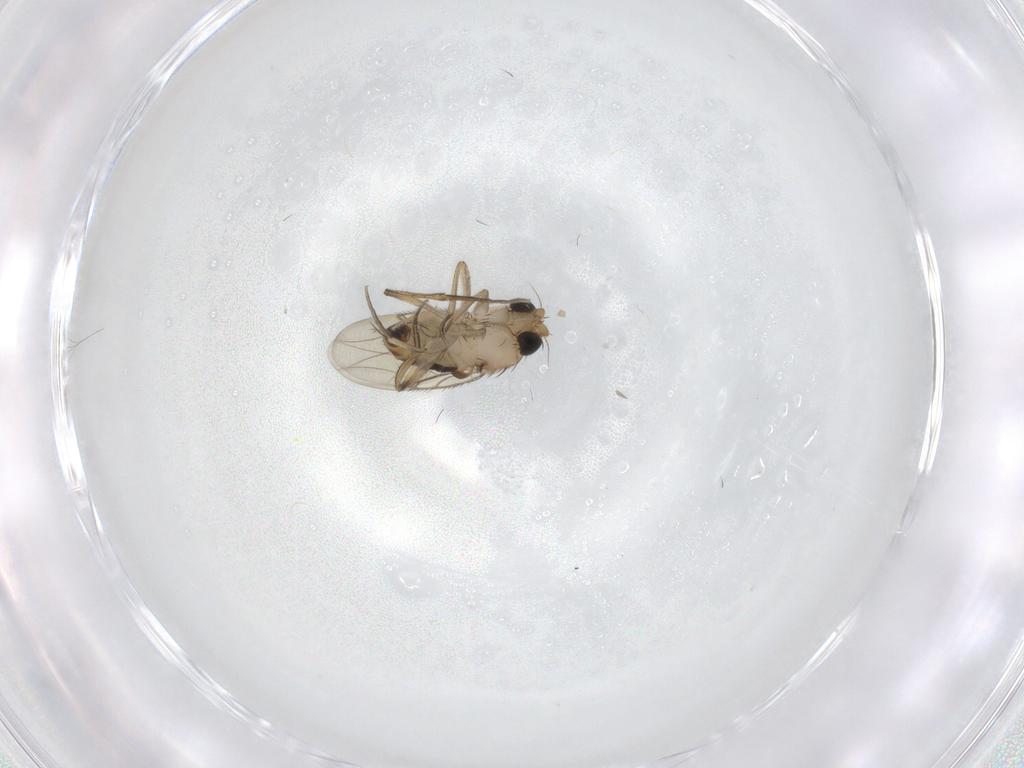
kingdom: Animalia
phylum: Arthropoda
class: Insecta
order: Diptera
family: Phoridae
